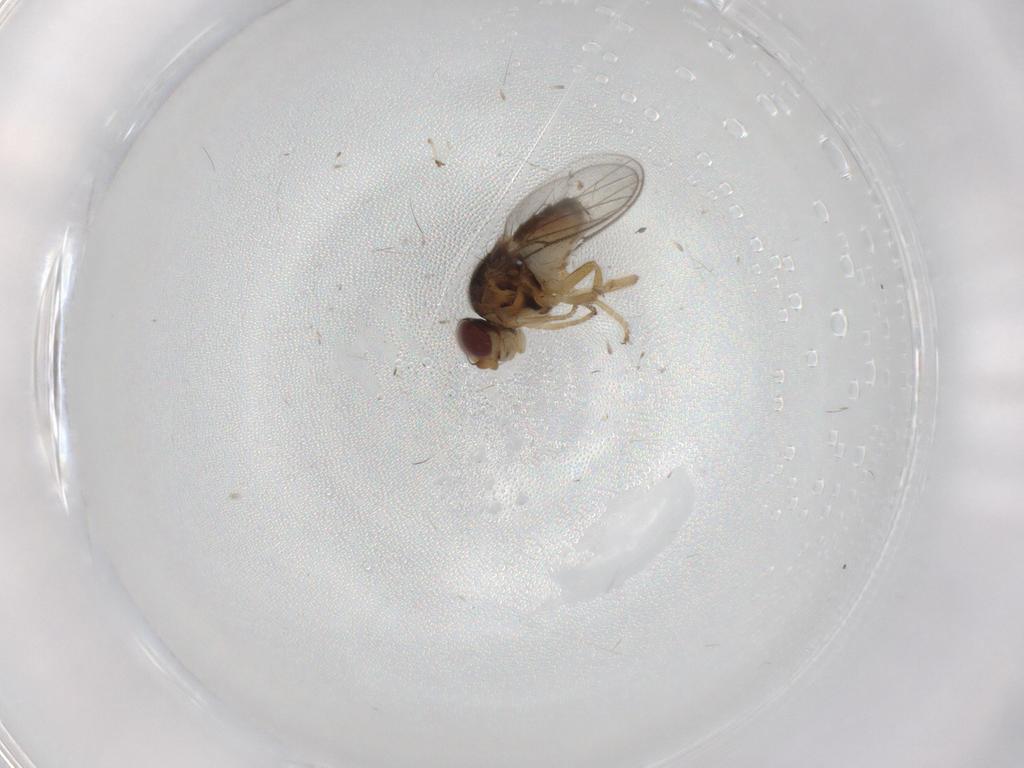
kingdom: Animalia
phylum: Arthropoda
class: Insecta
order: Diptera
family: Chloropidae
